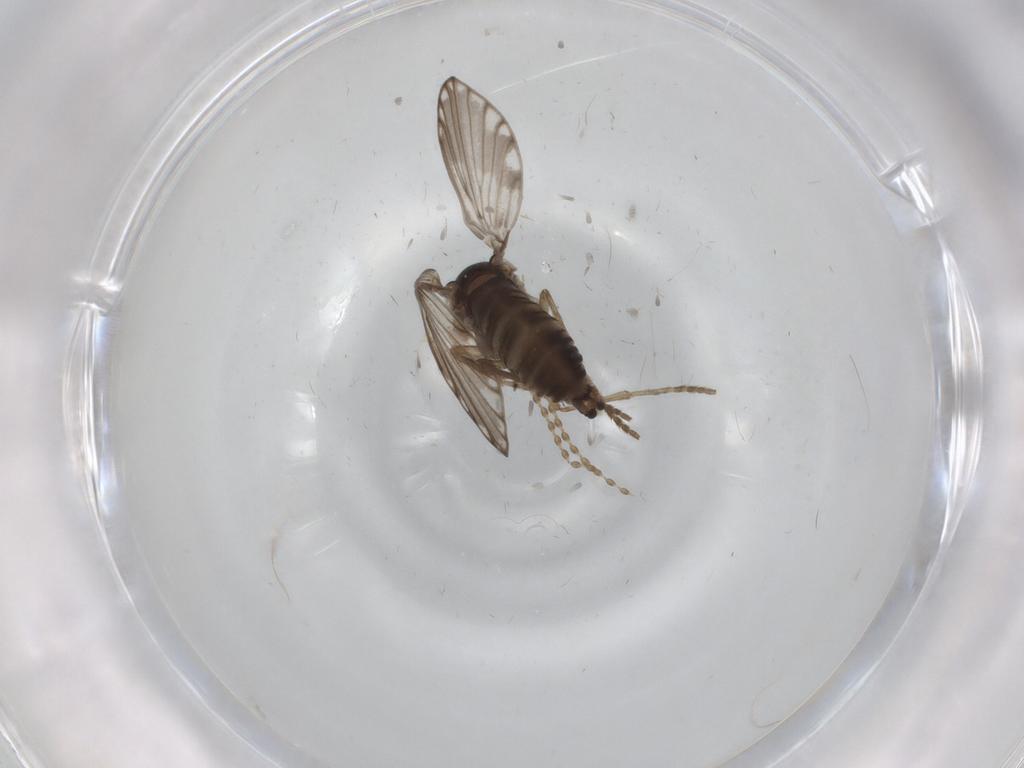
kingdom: Animalia
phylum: Arthropoda
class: Insecta
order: Diptera
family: Psychodidae
